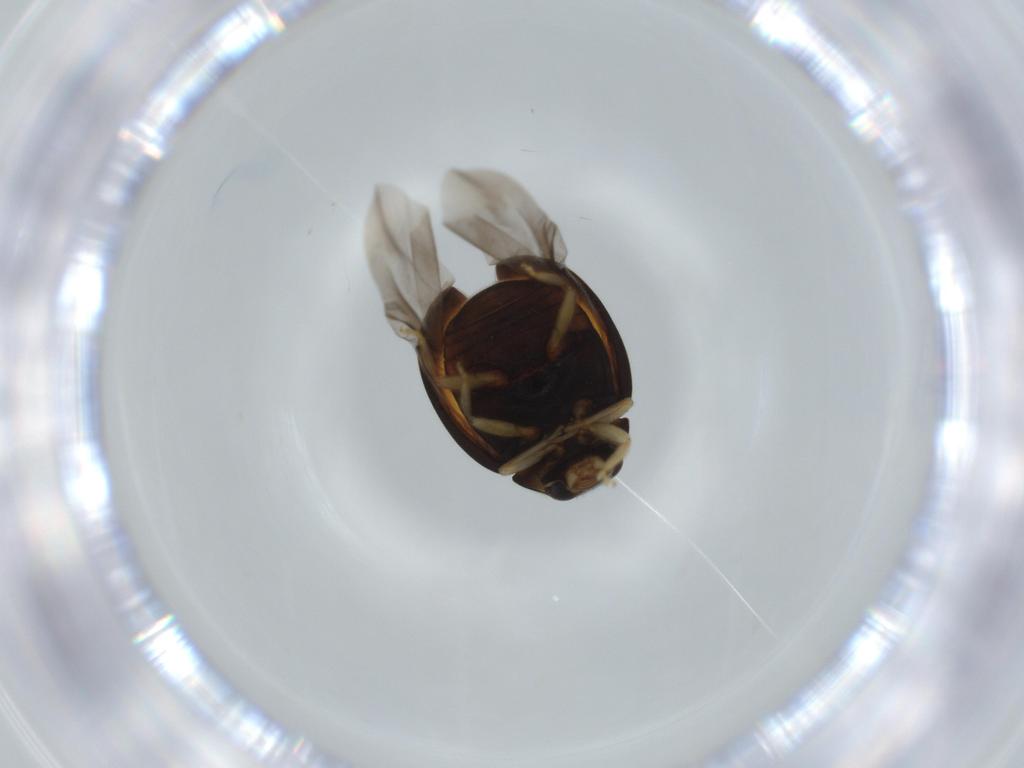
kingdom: Animalia
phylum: Arthropoda
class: Insecta
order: Coleoptera
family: Coccinellidae
